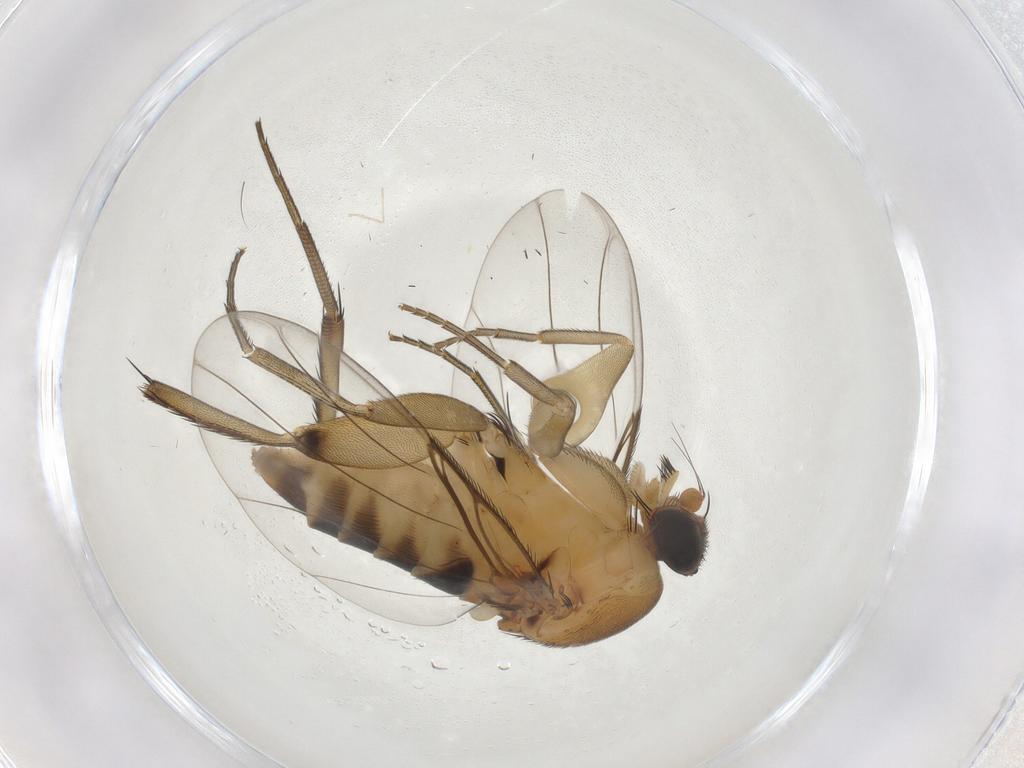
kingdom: Animalia
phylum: Arthropoda
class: Insecta
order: Diptera
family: Phoridae
